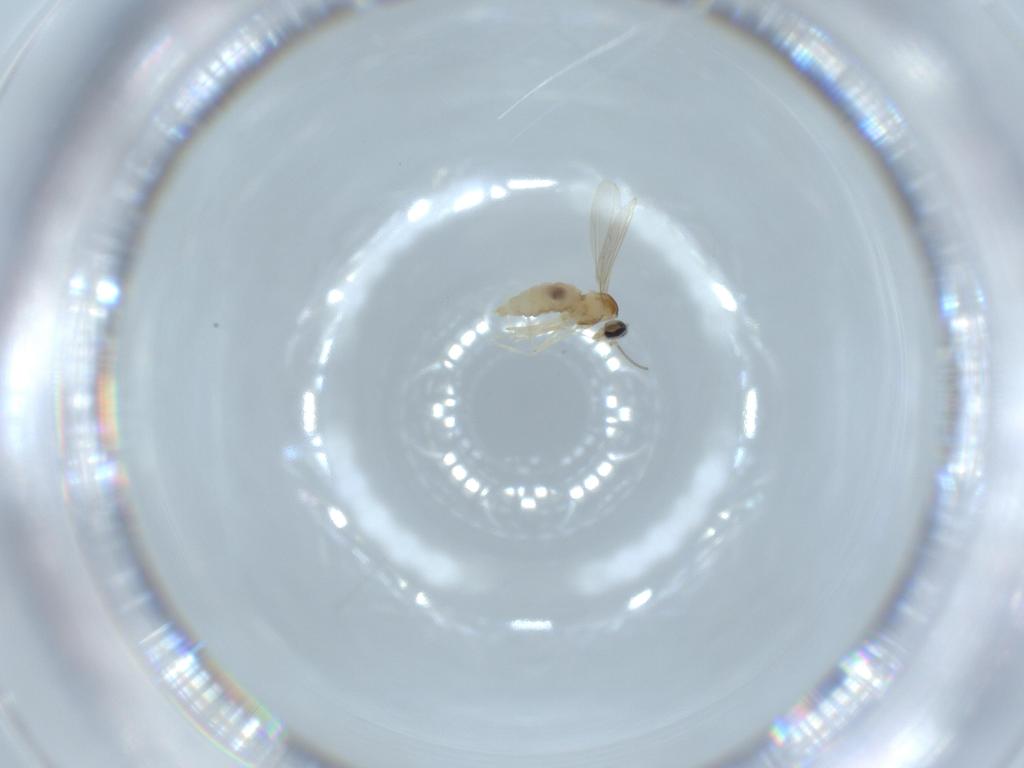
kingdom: Animalia
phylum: Arthropoda
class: Insecta
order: Diptera
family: Cecidomyiidae
